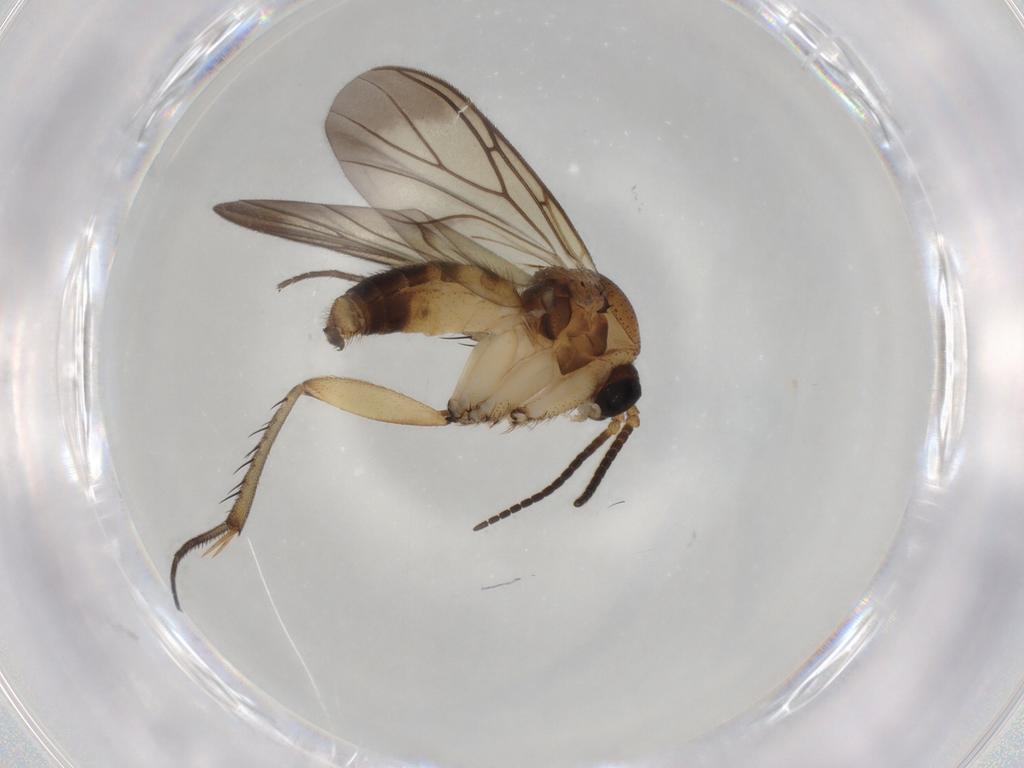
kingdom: Animalia
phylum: Arthropoda
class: Insecta
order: Diptera
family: Mycetophilidae
